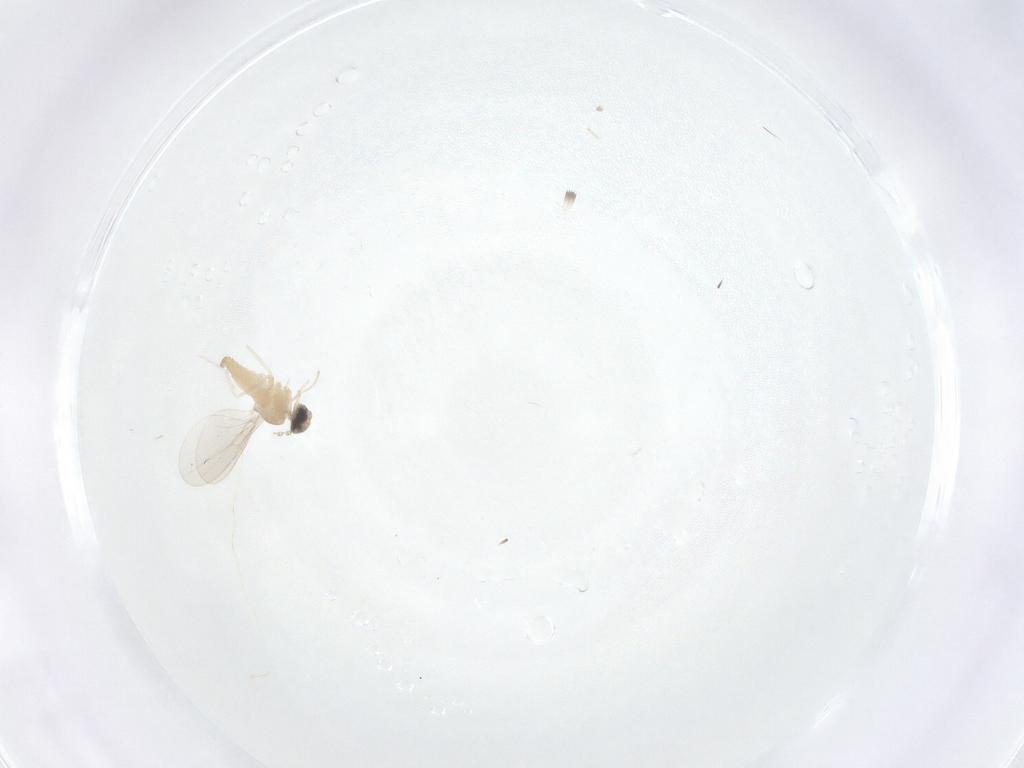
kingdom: Animalia
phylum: Arthropoda
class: Insecta
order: Diptera
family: Cecidomyiidae
